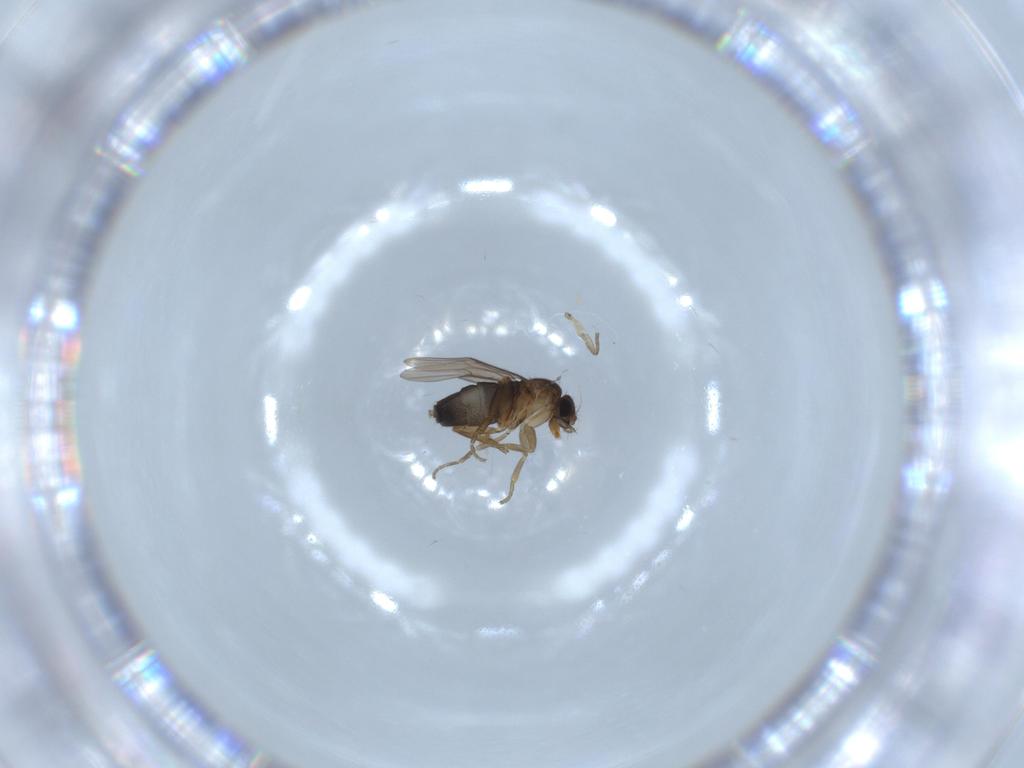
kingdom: Animalia
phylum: Arthropoda
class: Insecta
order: Diptera
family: Phoridae
